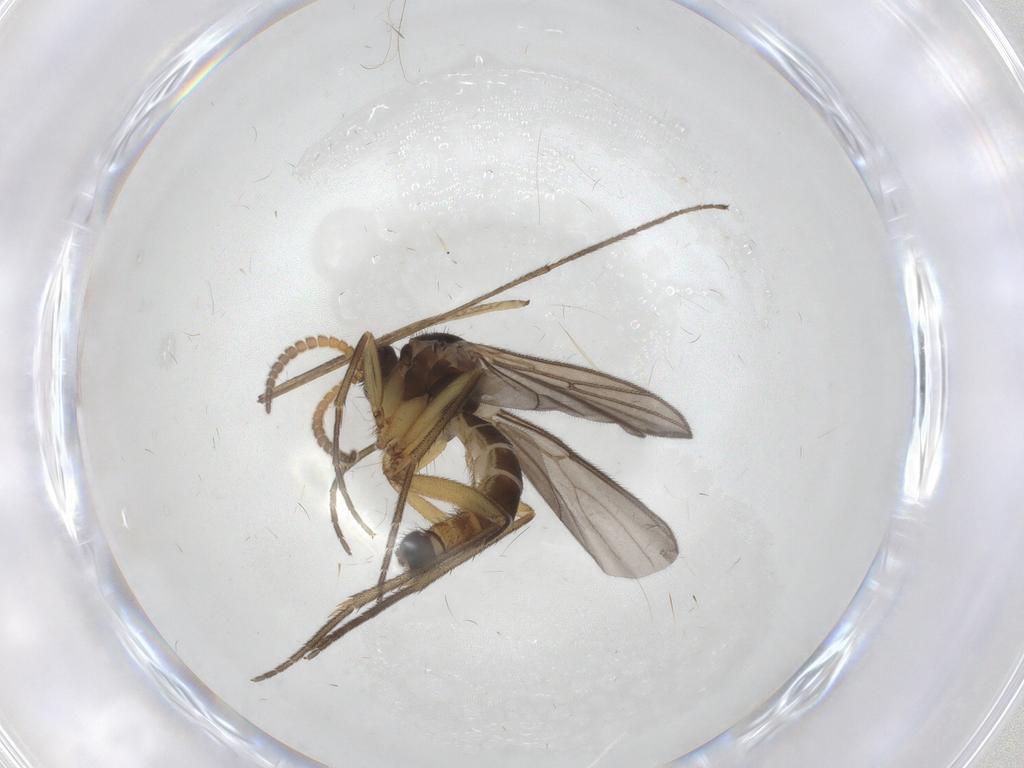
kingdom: Animalia
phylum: Arthropoda
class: Insecta
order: Diptera
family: Limoniidae
